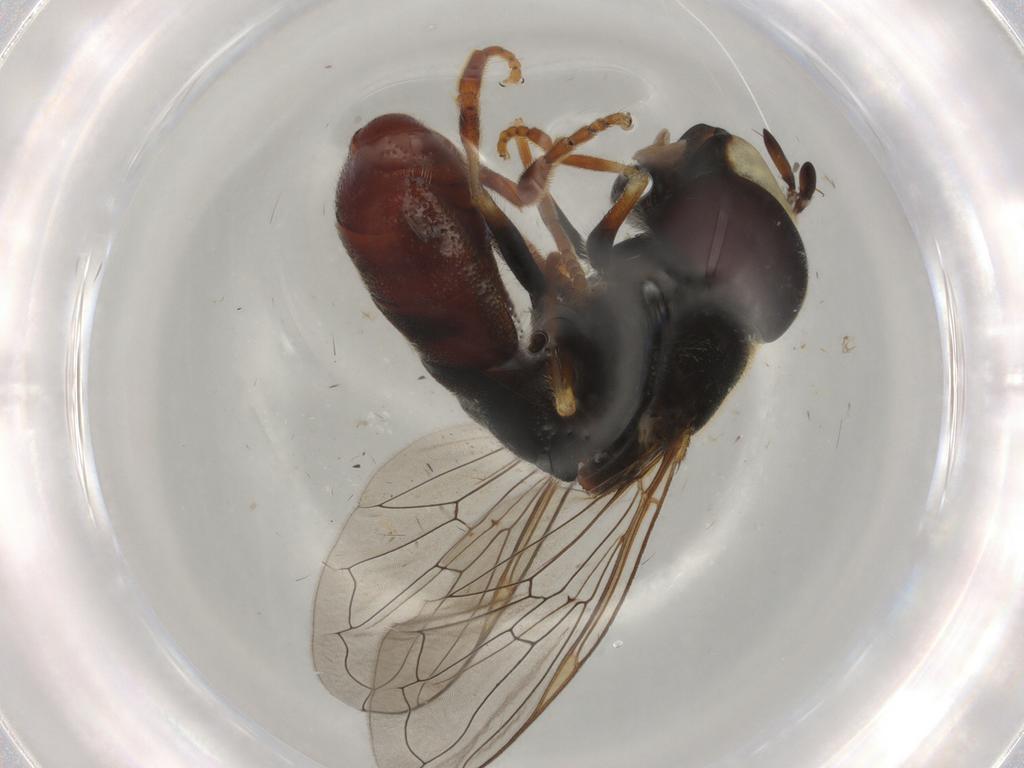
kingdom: Animalia
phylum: Arthropoda
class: Insecta
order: Diptera
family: Syrphidae
